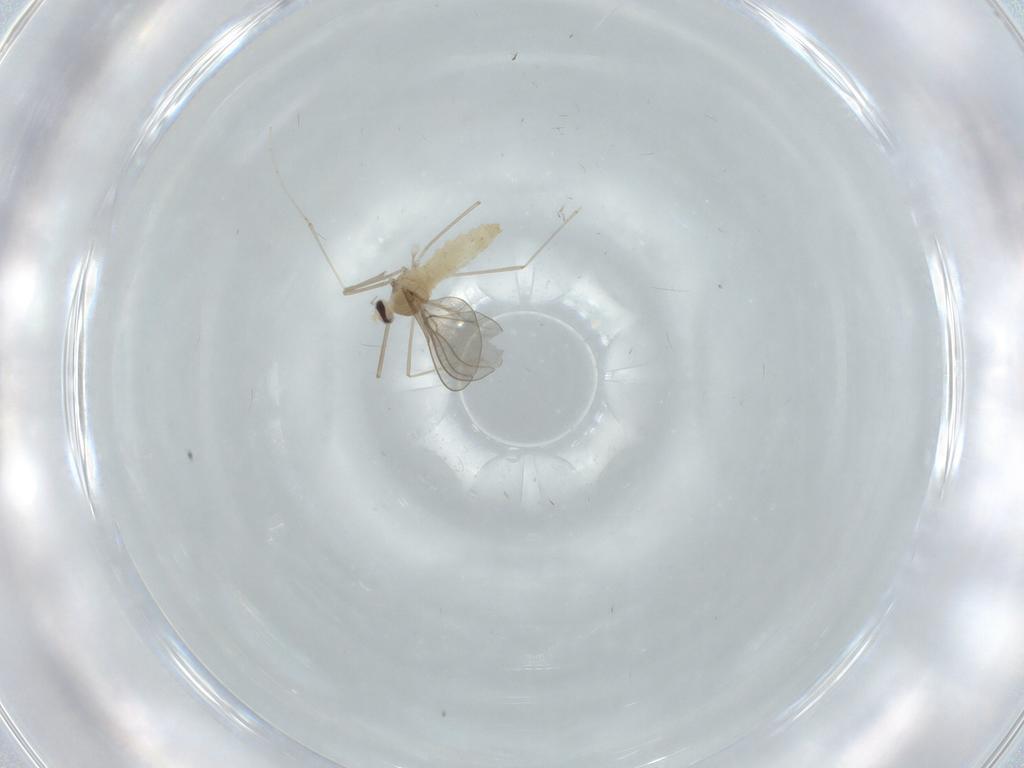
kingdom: Animalia
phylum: Arthropoda
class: Insecta
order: Diptera
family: Cecidomyiidae
